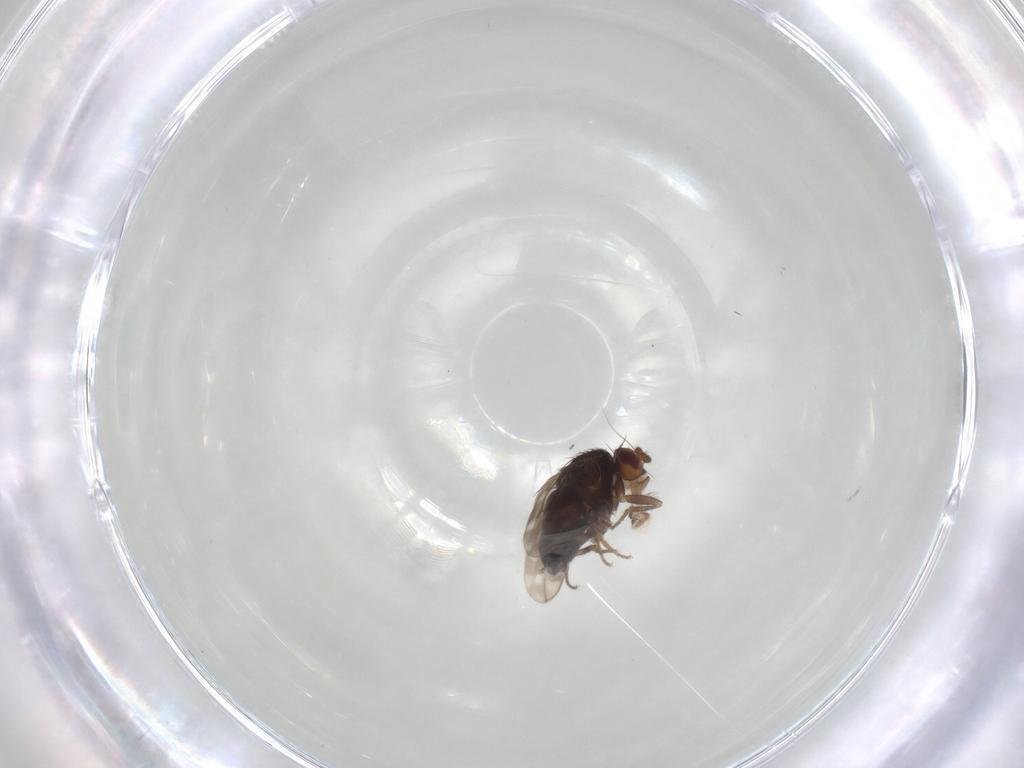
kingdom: Animalia
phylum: Arthropoda
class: Insecta
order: Diptera
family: Sphaeroceridae
